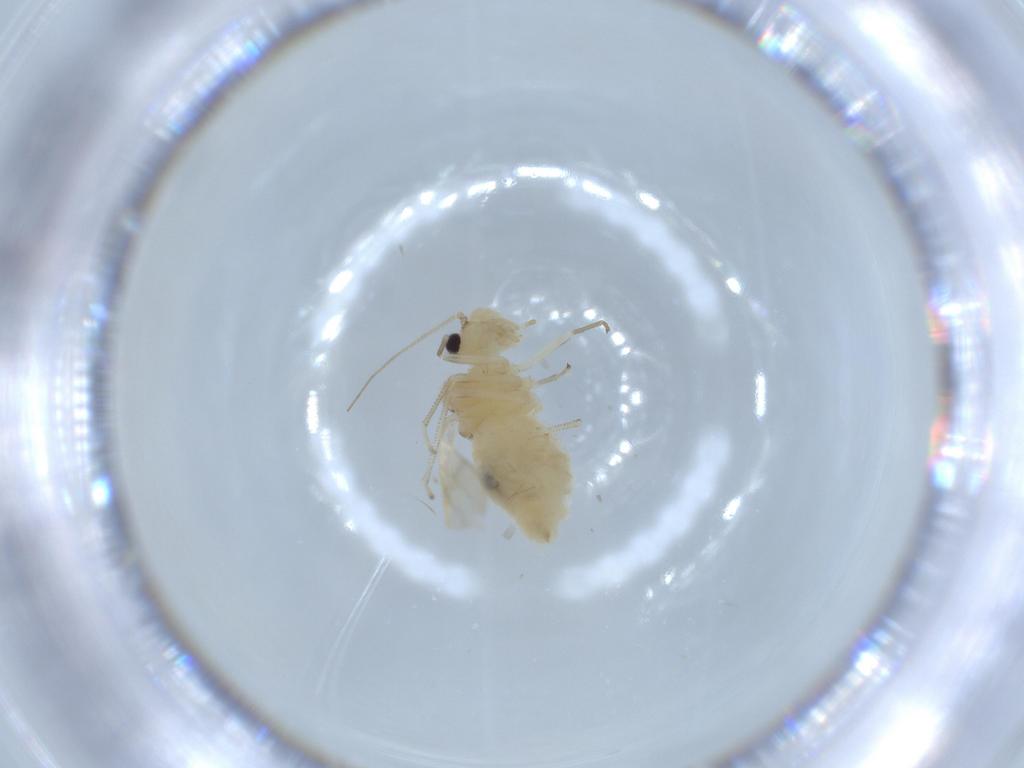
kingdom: Animalia
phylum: Arthropoda
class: Insecta
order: Psocodea
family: Caeciliusidae
